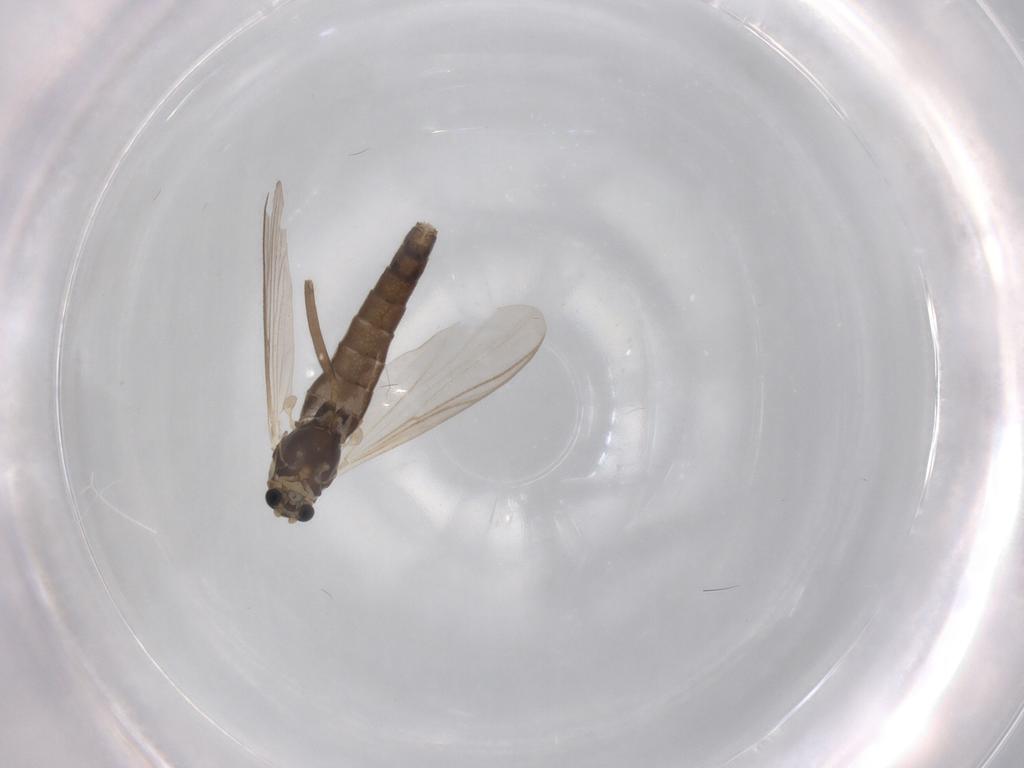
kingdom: Animalia
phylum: Arthropoda
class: Insecta
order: Diptera
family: Chironomidae
